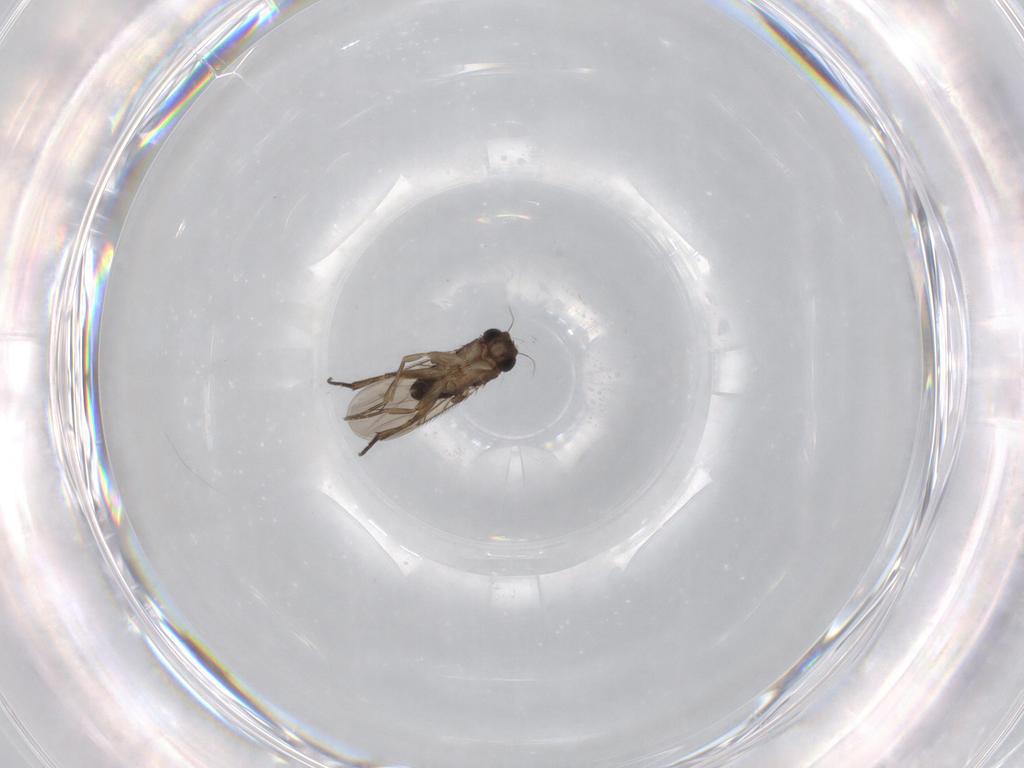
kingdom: Animalia
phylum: Arthropoda
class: Insecta
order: Diptera
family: Phoridae
